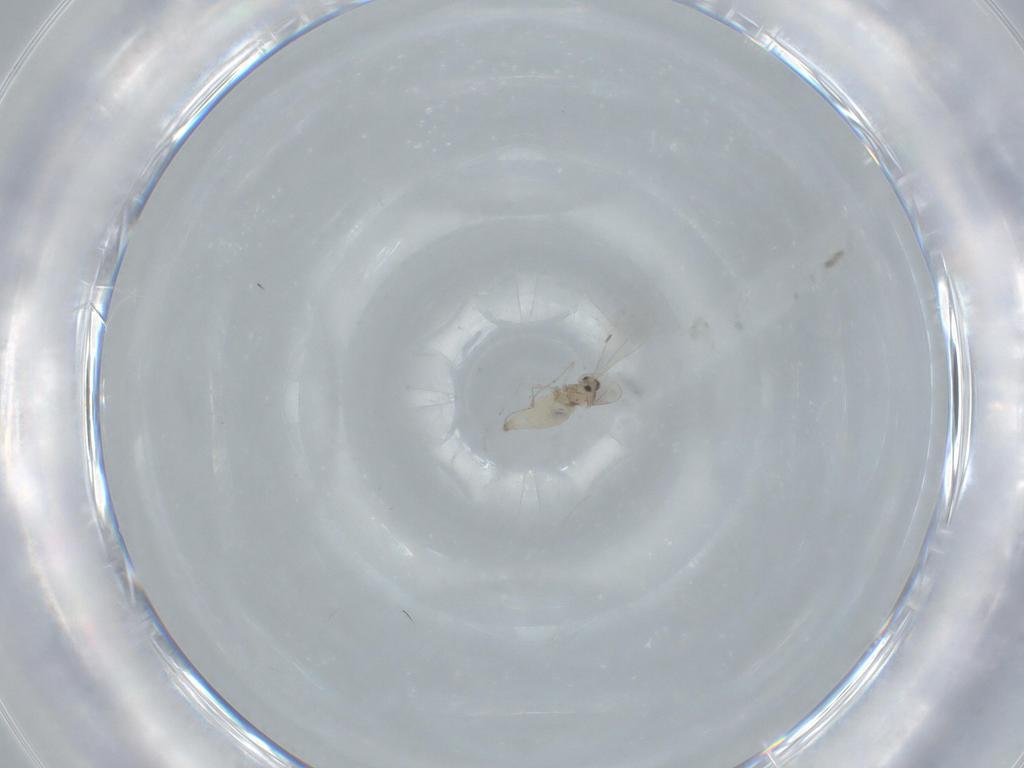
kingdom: Animalia
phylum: Arthropoda
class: Insecta
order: Diptera
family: Cecidomyiidae
